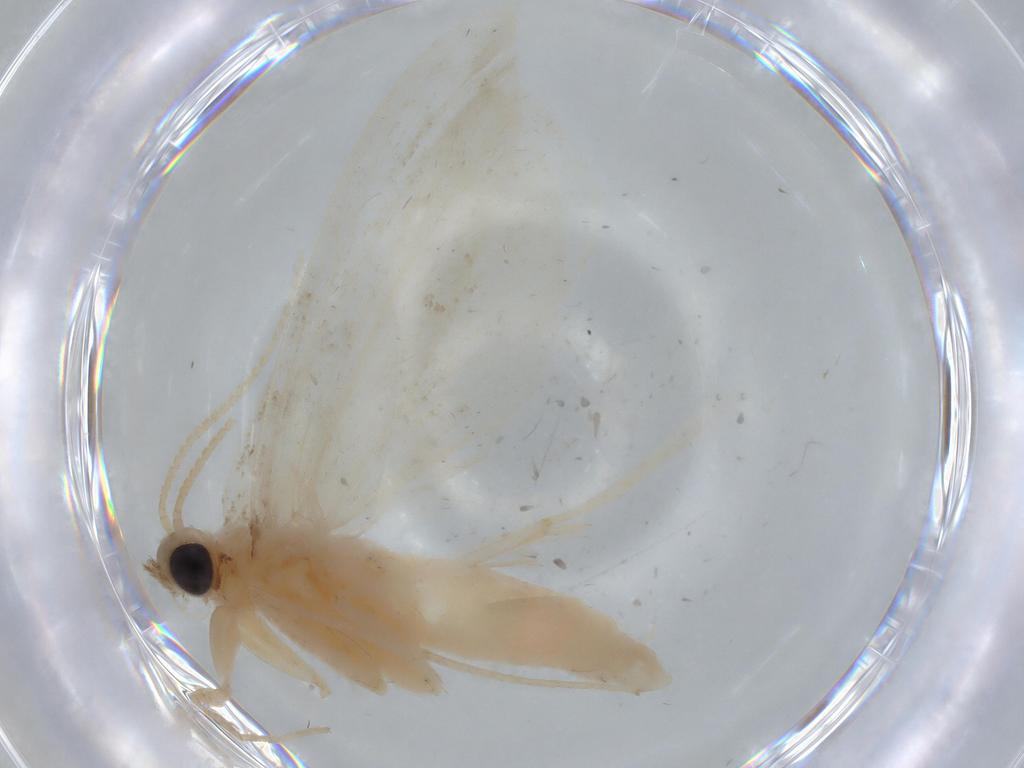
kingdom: Animalia
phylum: Arthropoda
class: Insecta
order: Lepidoptera
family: Crambidae
